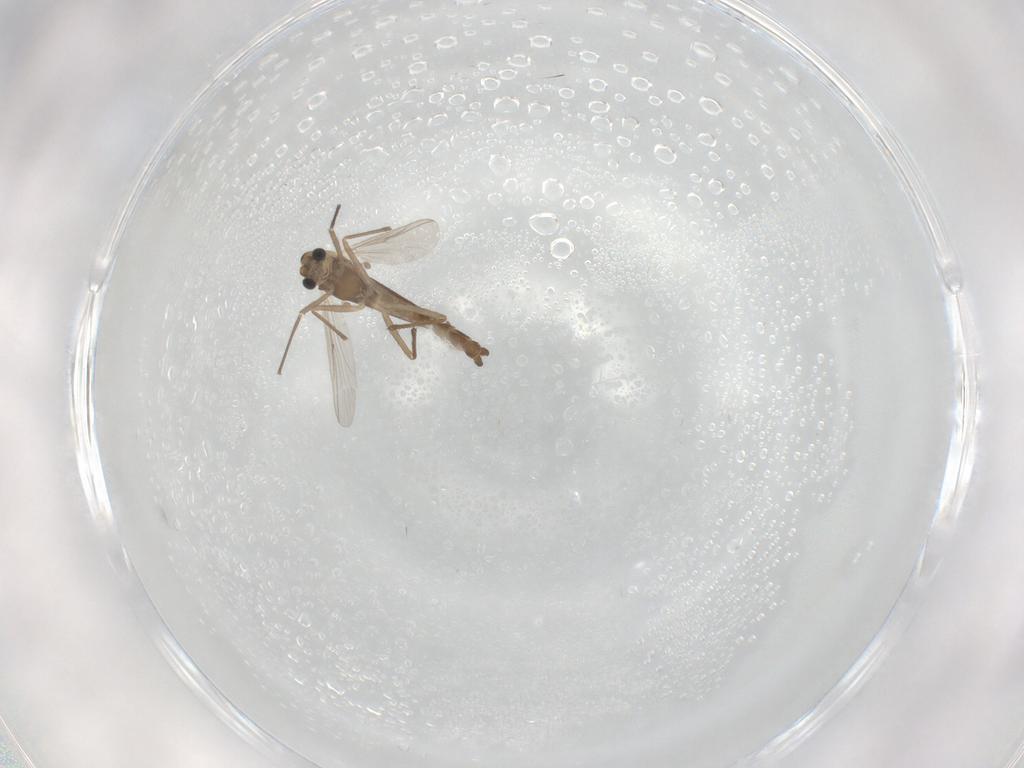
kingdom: Animalia
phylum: Arthropoda
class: Insecta
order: Diptera
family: Chironomidae
